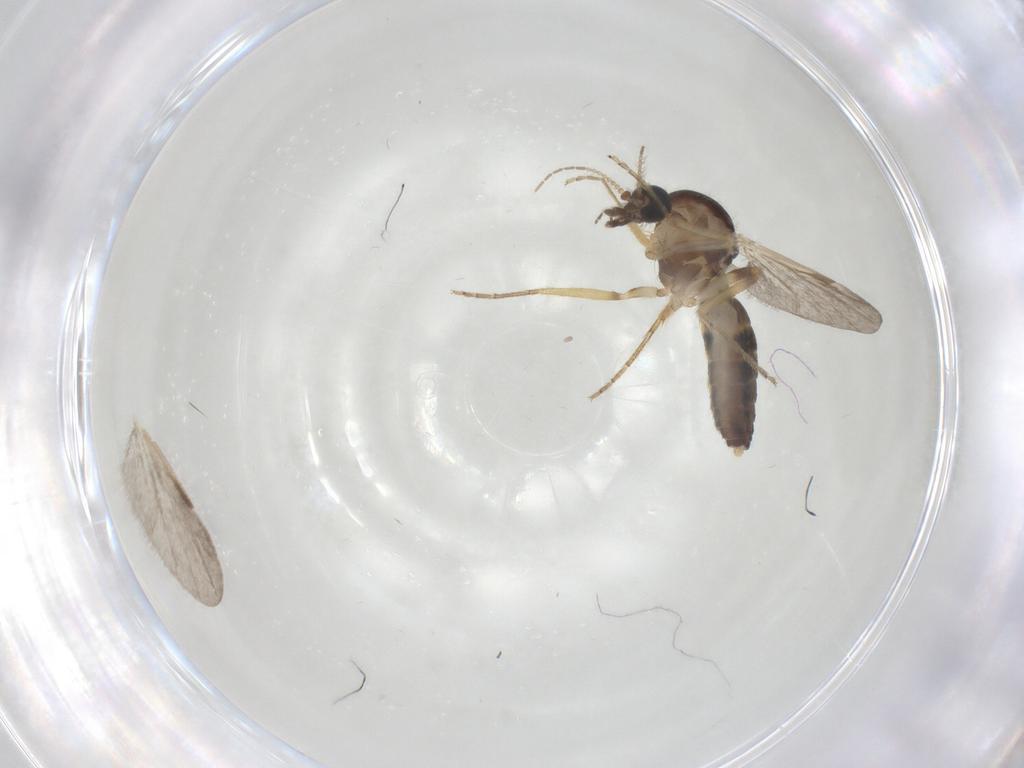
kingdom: Animalia
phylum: Arthropoda
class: Insecta
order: Diptera
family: Ceratopogonidae
